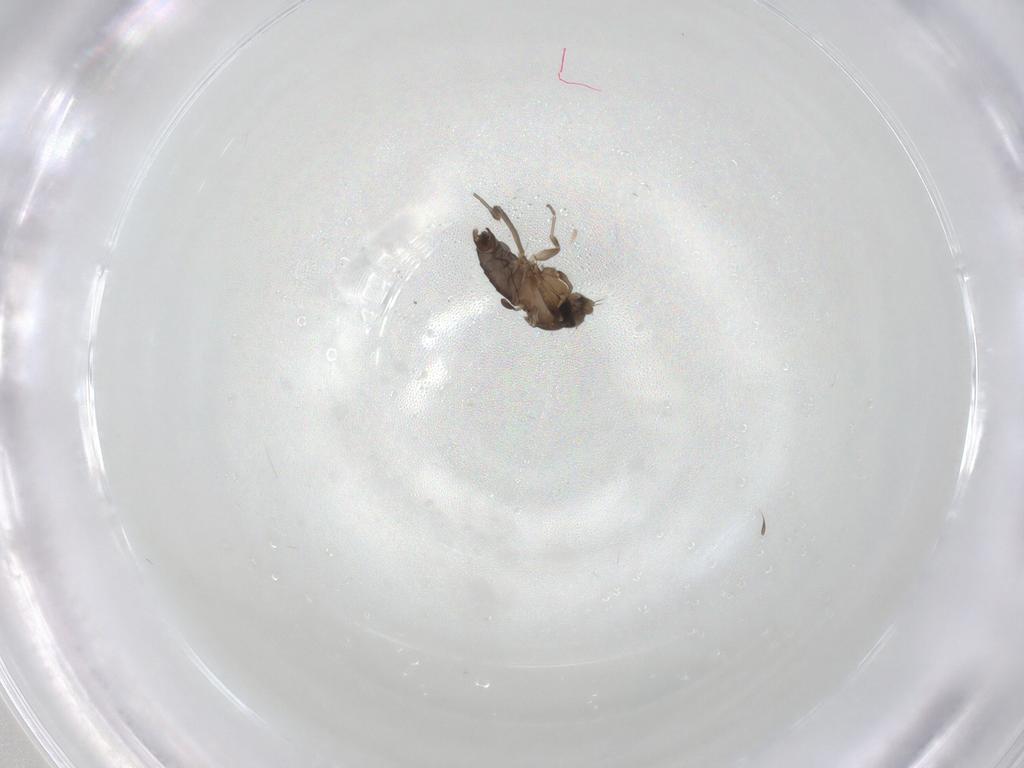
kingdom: Animalia
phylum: Arthropoda
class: Insecta
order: Diptera
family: Phoridae
